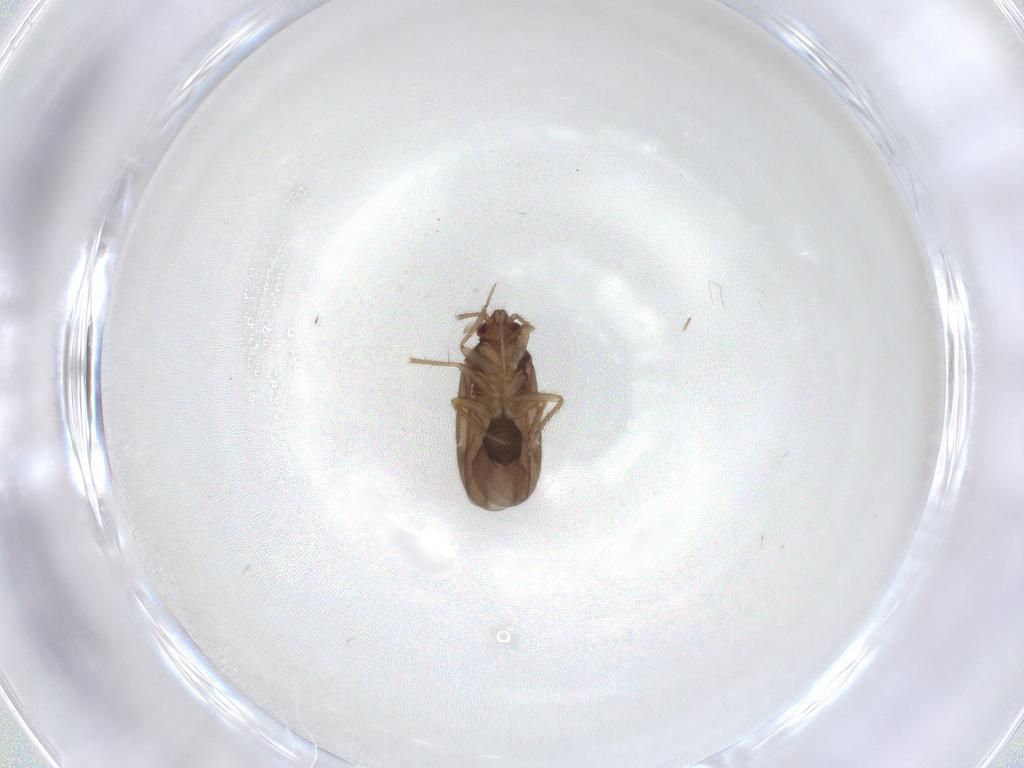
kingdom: Animalia
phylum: Arthropoda
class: Insecta
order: Hemiptera
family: Ceratocombidae
